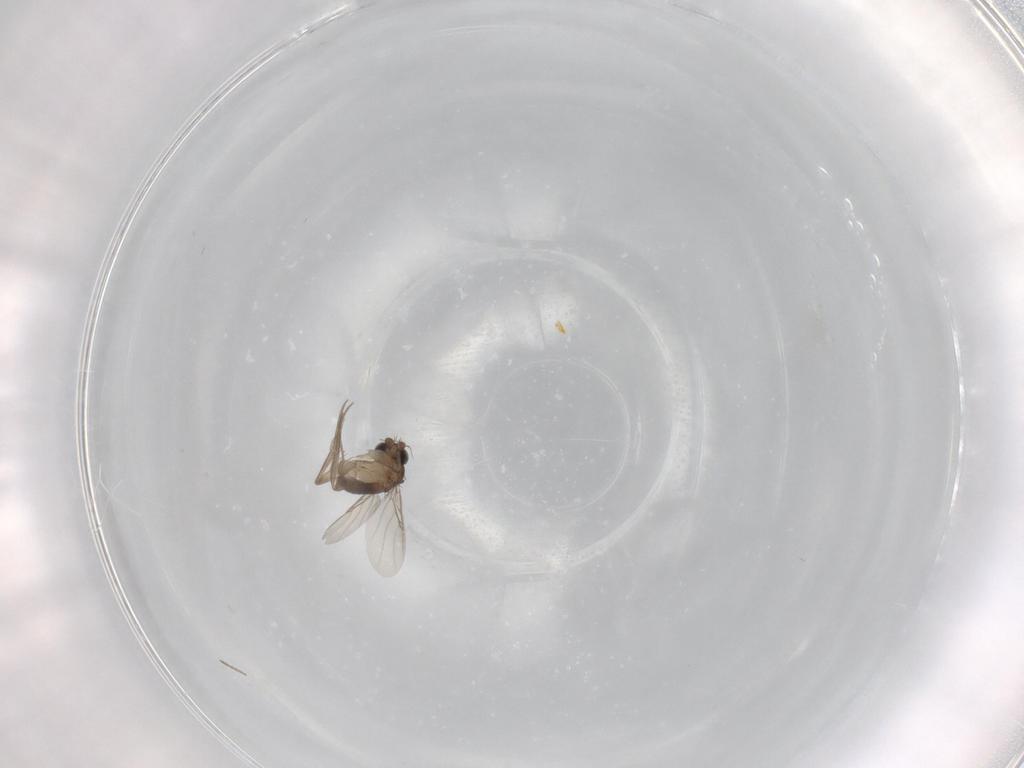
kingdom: Animalia
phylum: Arthropoda
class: Insecta
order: Diptera
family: Phoridae
